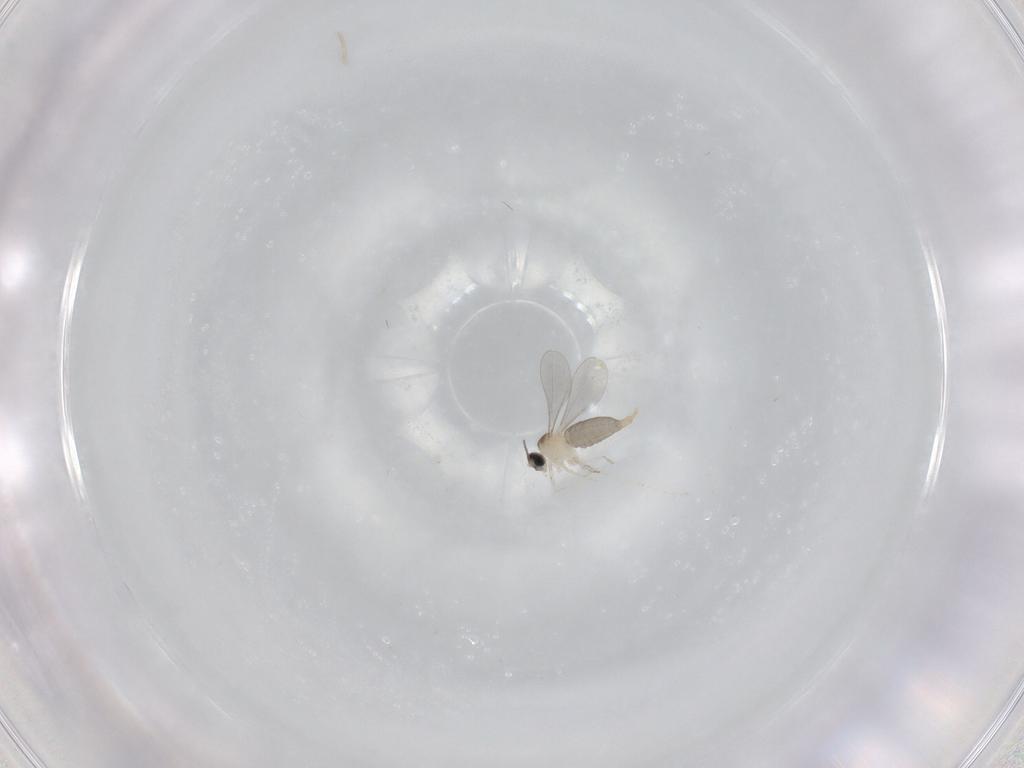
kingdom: Animalia
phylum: Arthropoda
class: Insecta
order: Diptera
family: Cecidomyiidae
